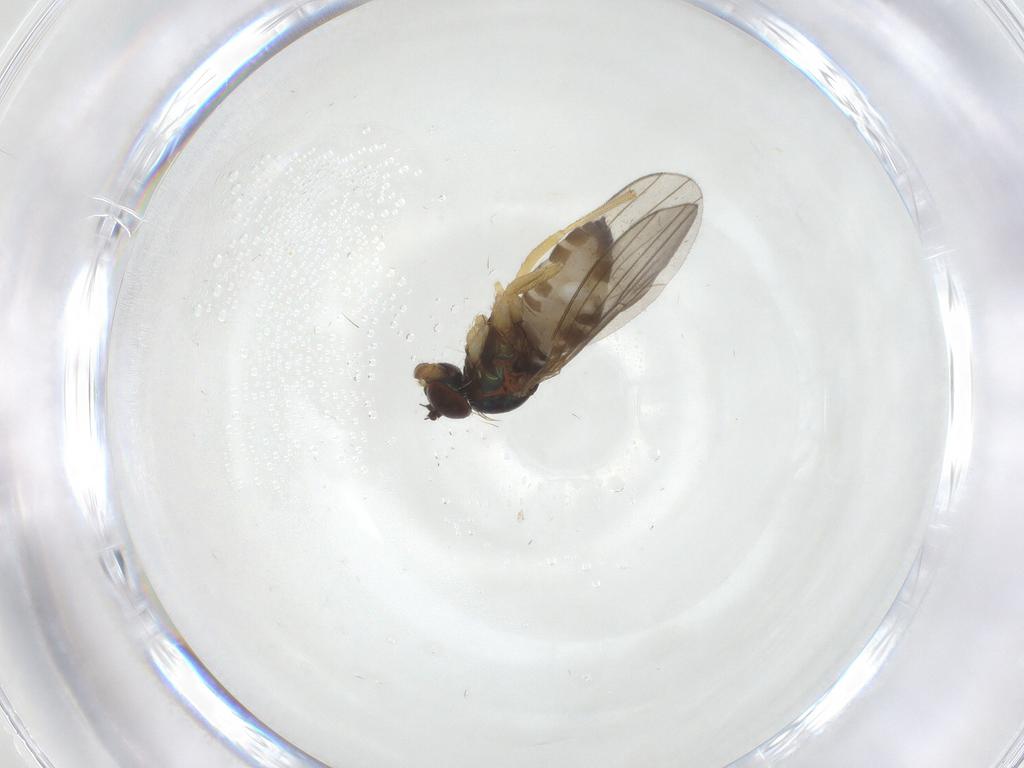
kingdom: Animalia
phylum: Arthropoda
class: Insecta
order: Diptera
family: Dolichopodidae
